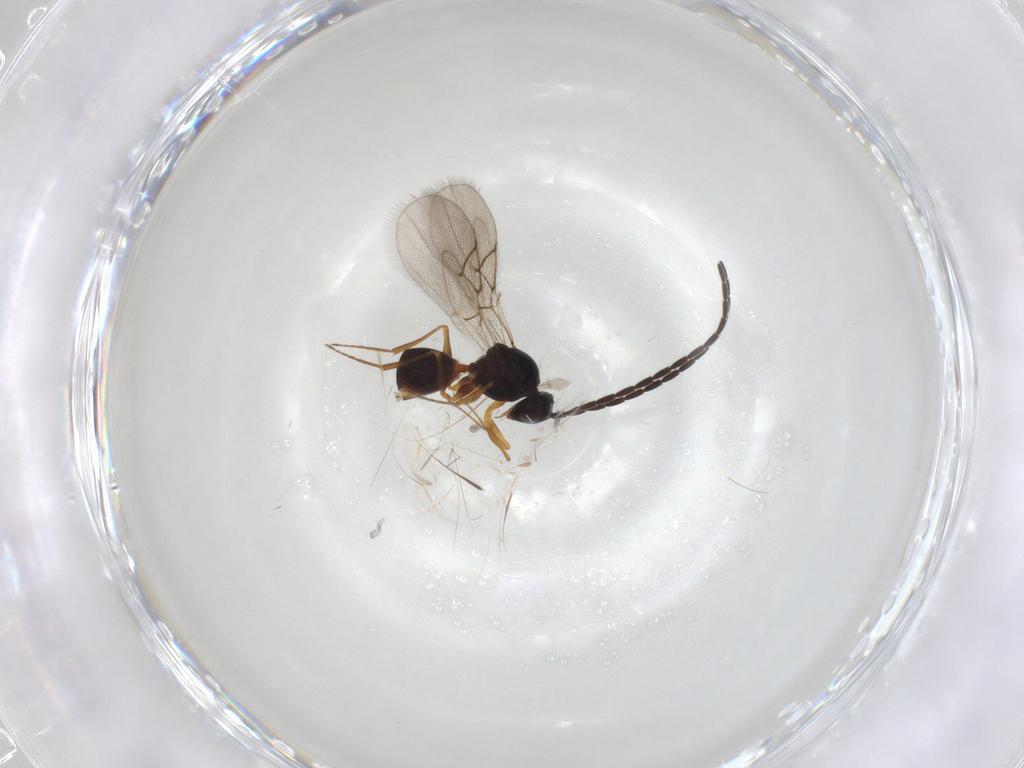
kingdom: Animalia
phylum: Arthropoda
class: Insecta
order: Hymenoptera
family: Figitidae
